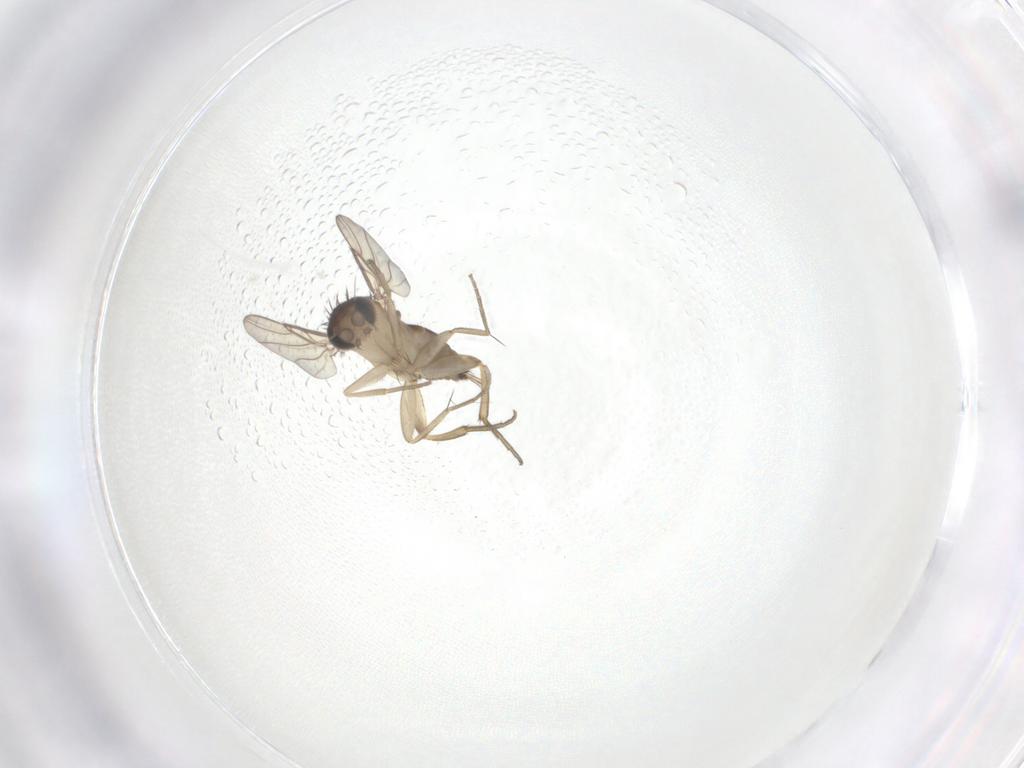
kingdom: Animalia
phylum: Arthropoda
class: Insecta
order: Diptera
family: Phoridae
